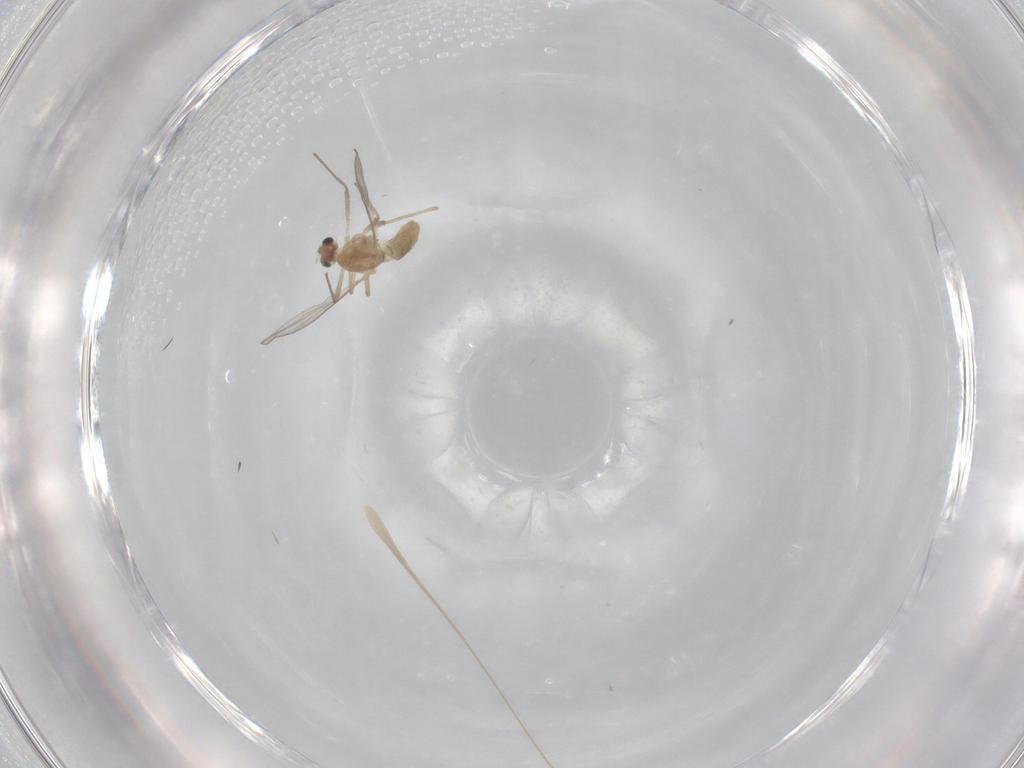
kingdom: Animalia
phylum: Arthropoda
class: Insecta
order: Diptera
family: Chironomidae
